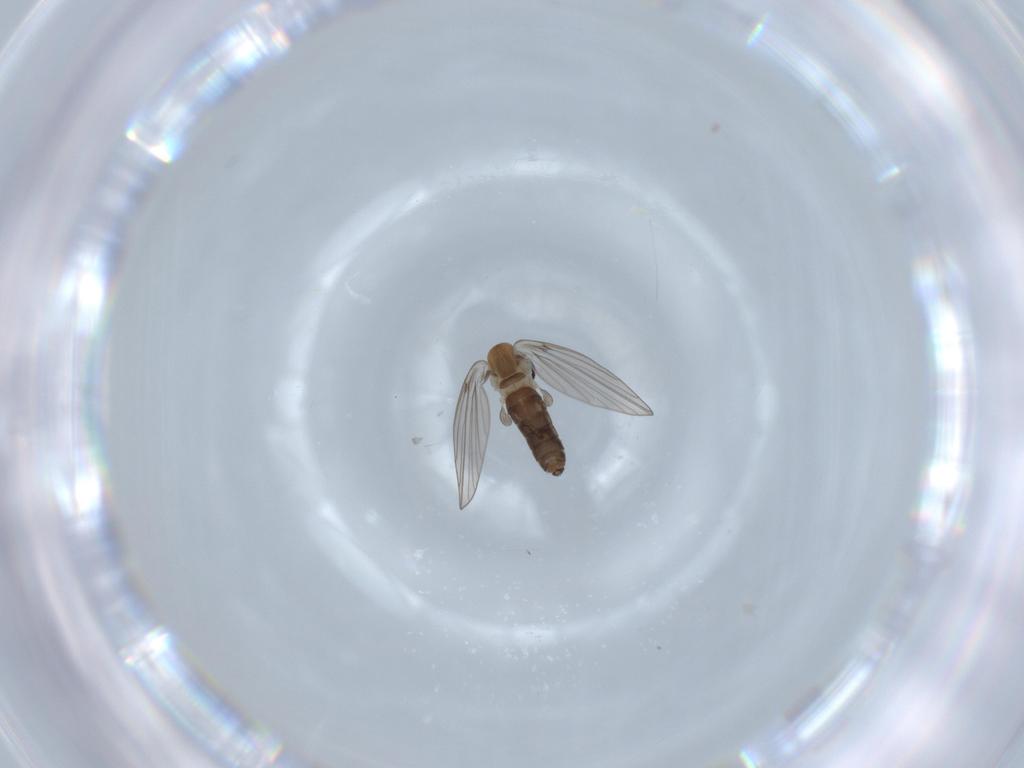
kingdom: Animalia
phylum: Arthropoda
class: Insecta
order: Diptera
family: Psychodidae
